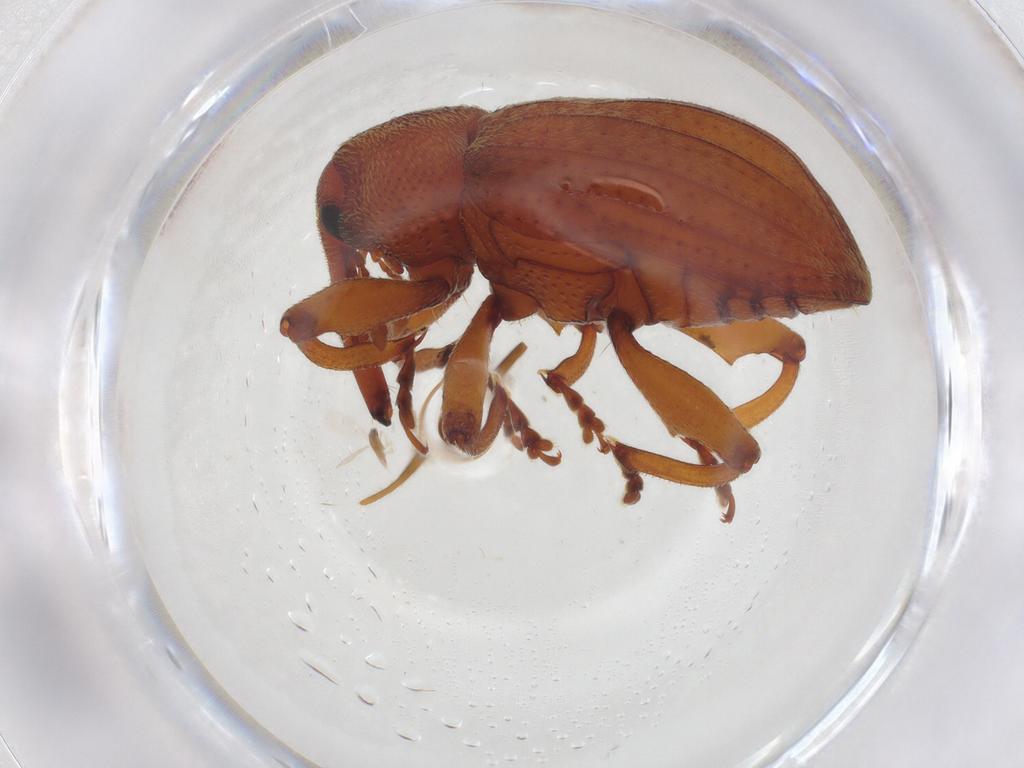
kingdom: Animalia
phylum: Arthropoda
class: Insecta
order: Coleoptera
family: Cerambycidae
